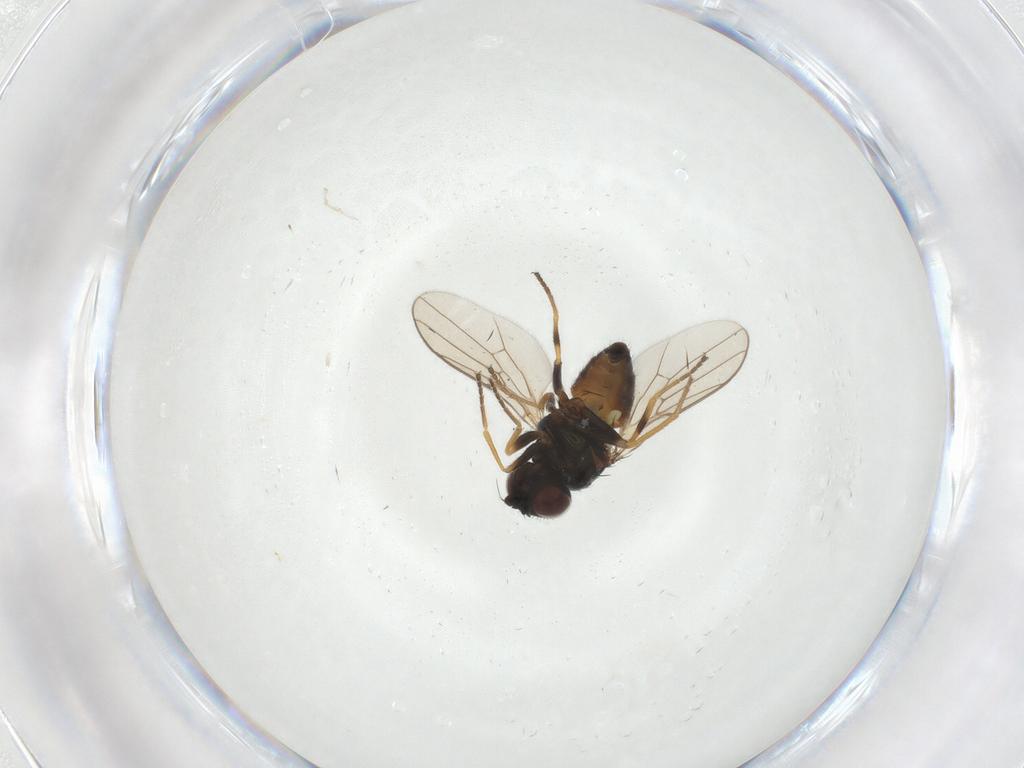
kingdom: Animalia
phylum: Arthropoda
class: Insecta
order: Diptera
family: Chloropidae
